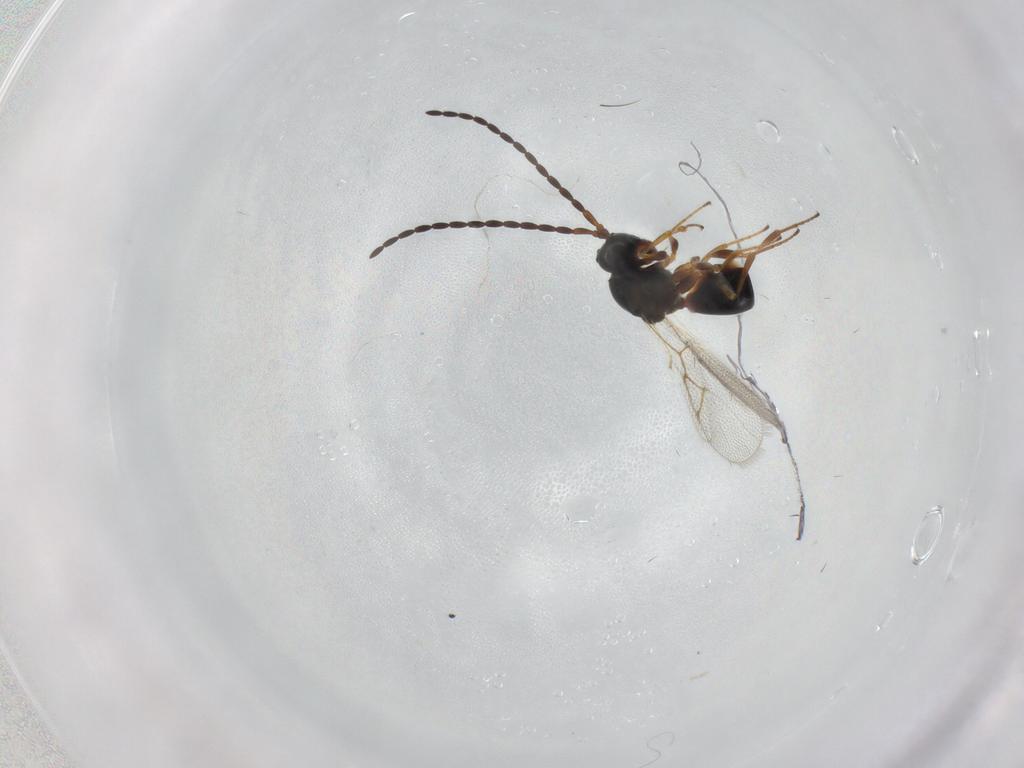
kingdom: Animalia
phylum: Arthropoda
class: Insecta
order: Hymenoptera
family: Figitidae
